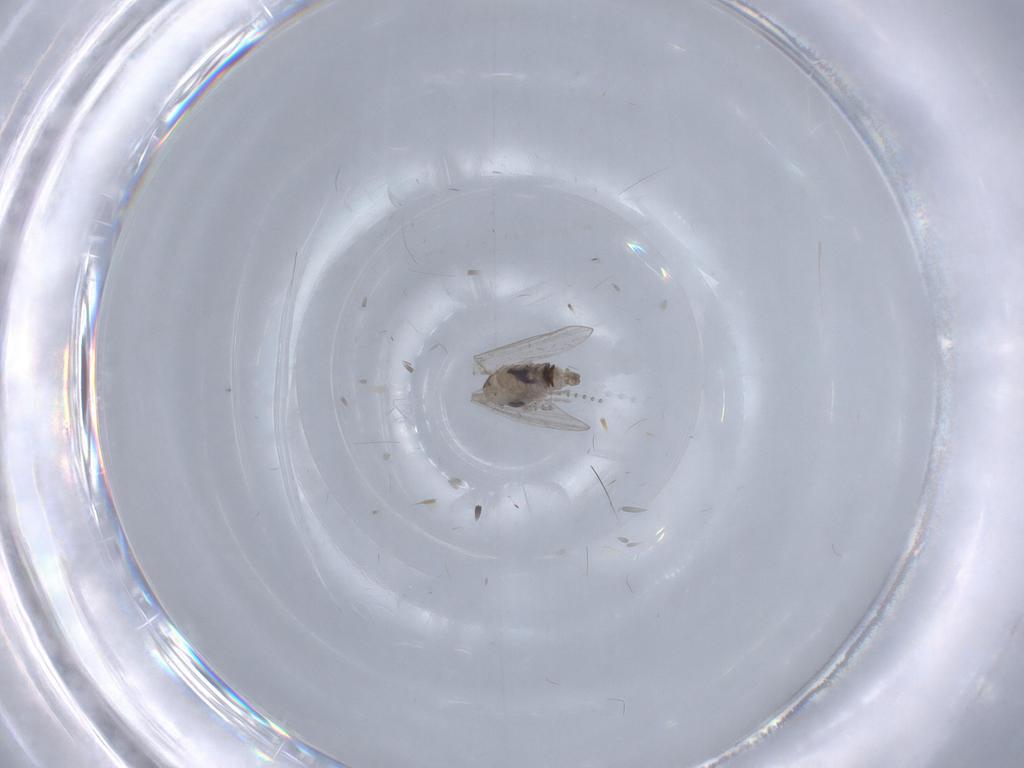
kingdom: Animalia
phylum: Arthropoda
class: Insecta
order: Diptera
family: Psychodidae
